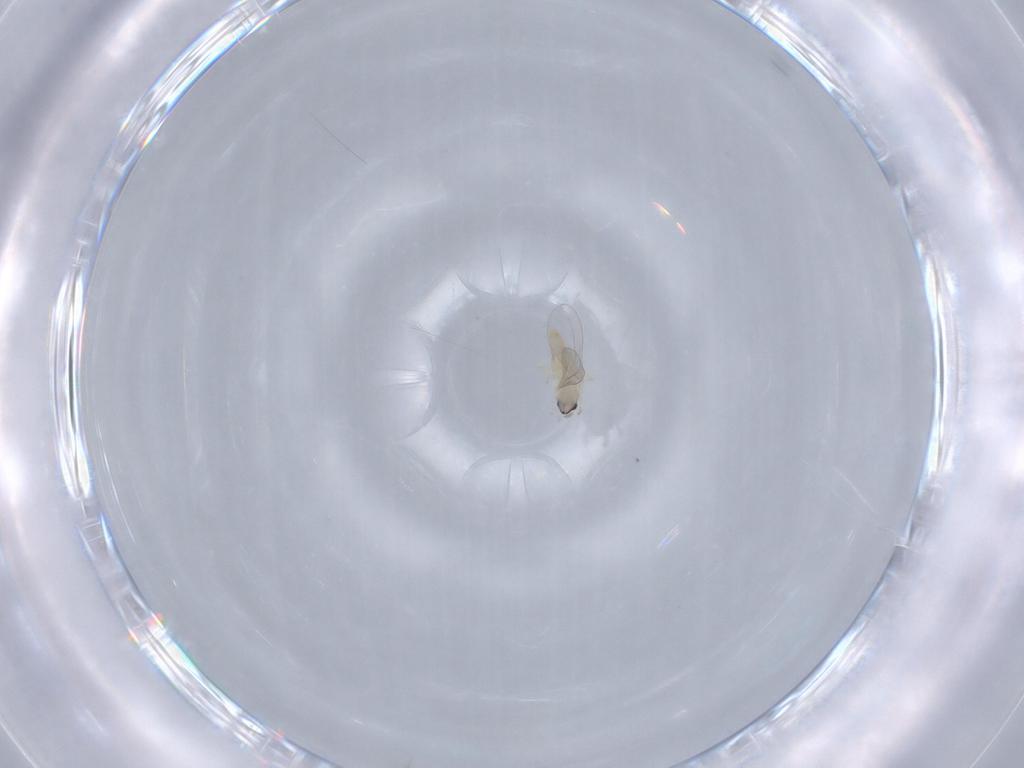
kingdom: Animalia
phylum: Arthropoda
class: Insecta
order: Diptera
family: Cecidomyiidae
